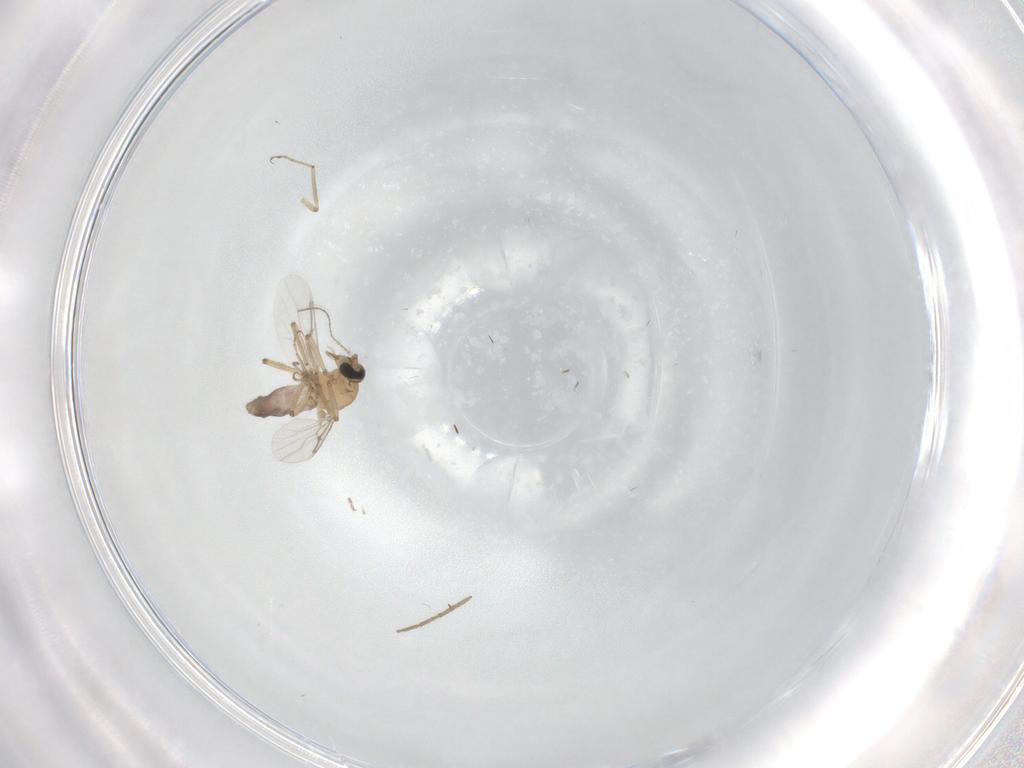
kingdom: Animalia
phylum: Arthropoda
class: Insecta
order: Diptera
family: Ceratopogonidae
